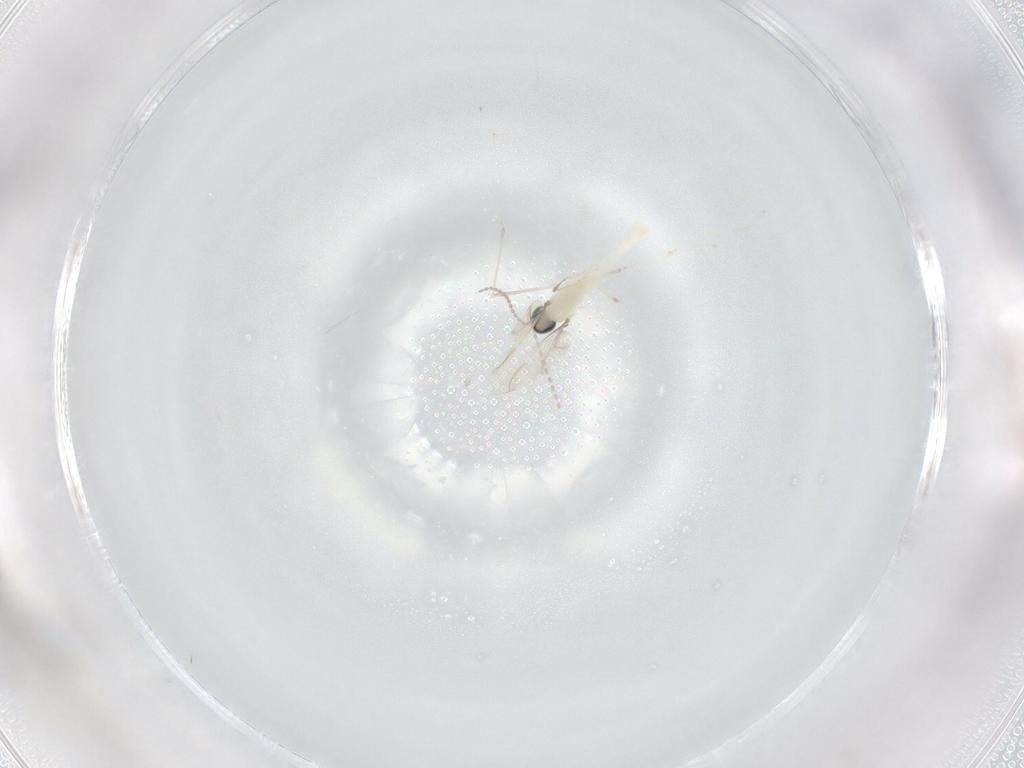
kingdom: Animalia
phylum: Arthropoda
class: Insecta
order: Diptera
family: Cecidomyiidae
